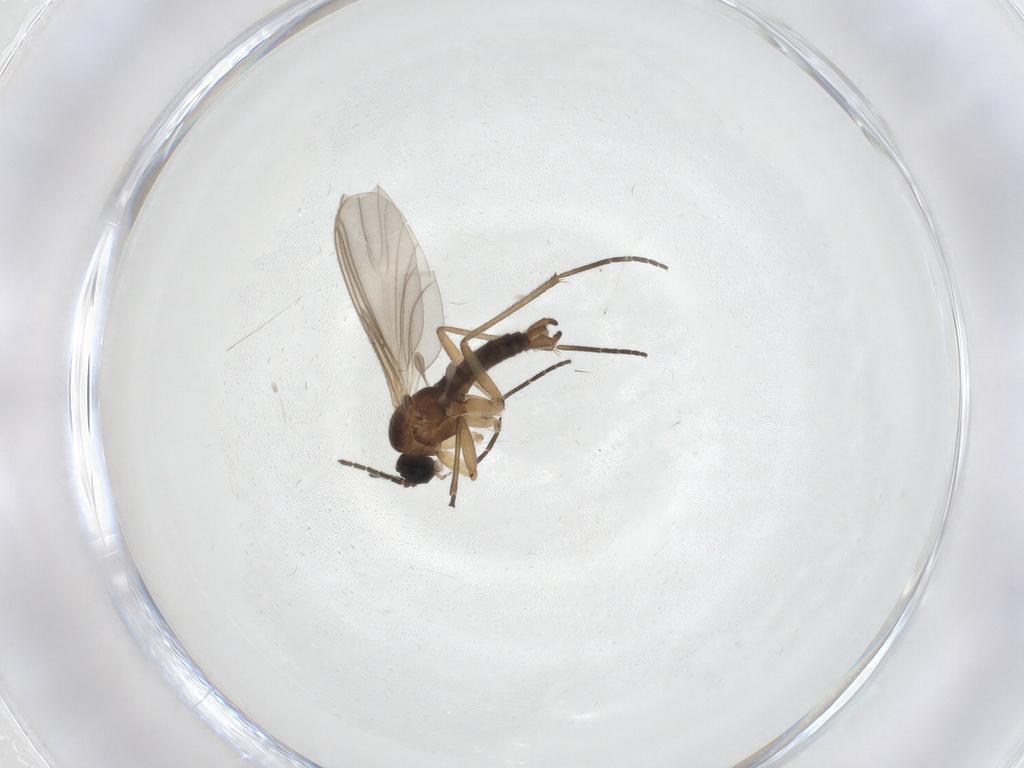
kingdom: Animalia
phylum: Arthropoda
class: Insecta
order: Diptera
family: Sciaridae
